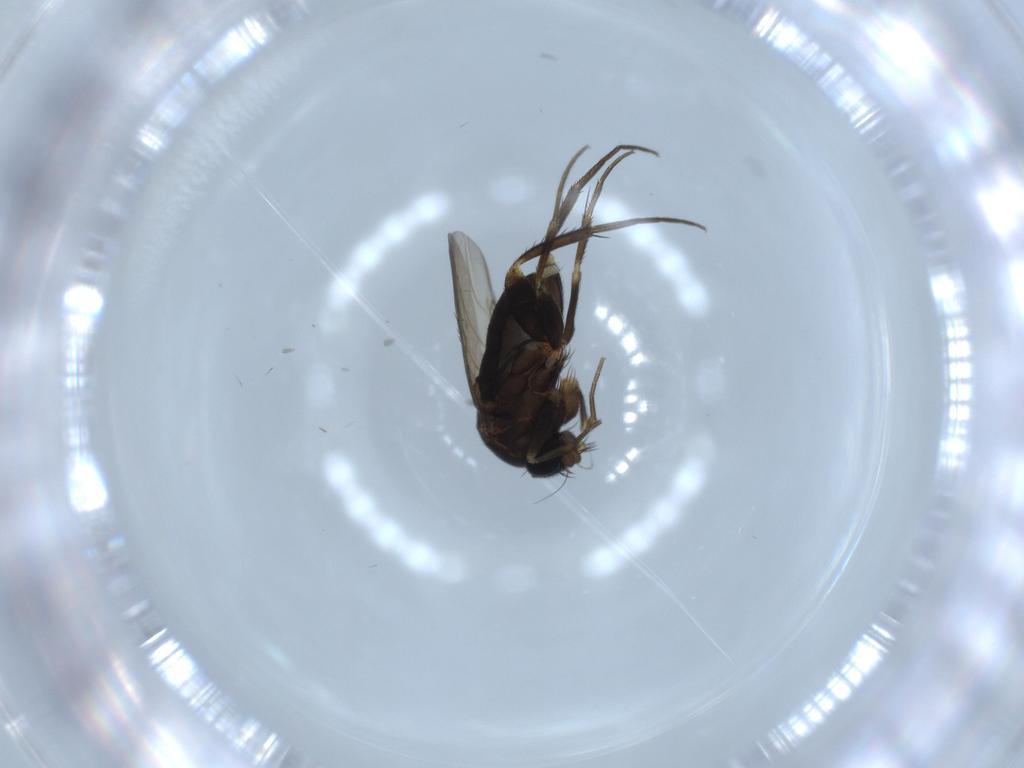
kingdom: Animalia
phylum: Arthropoda
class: Insecta
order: Diptera
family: Phoridae
